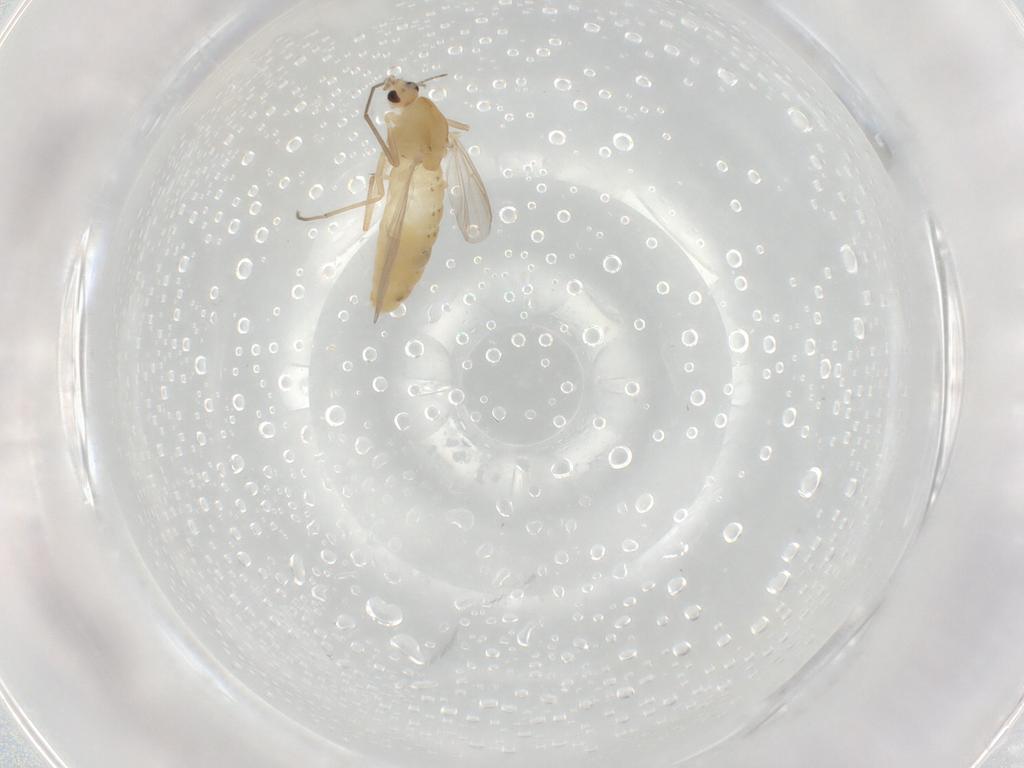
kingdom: Animalia
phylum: Arthropoda
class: Insecta
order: Diptera
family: Chironomidae
